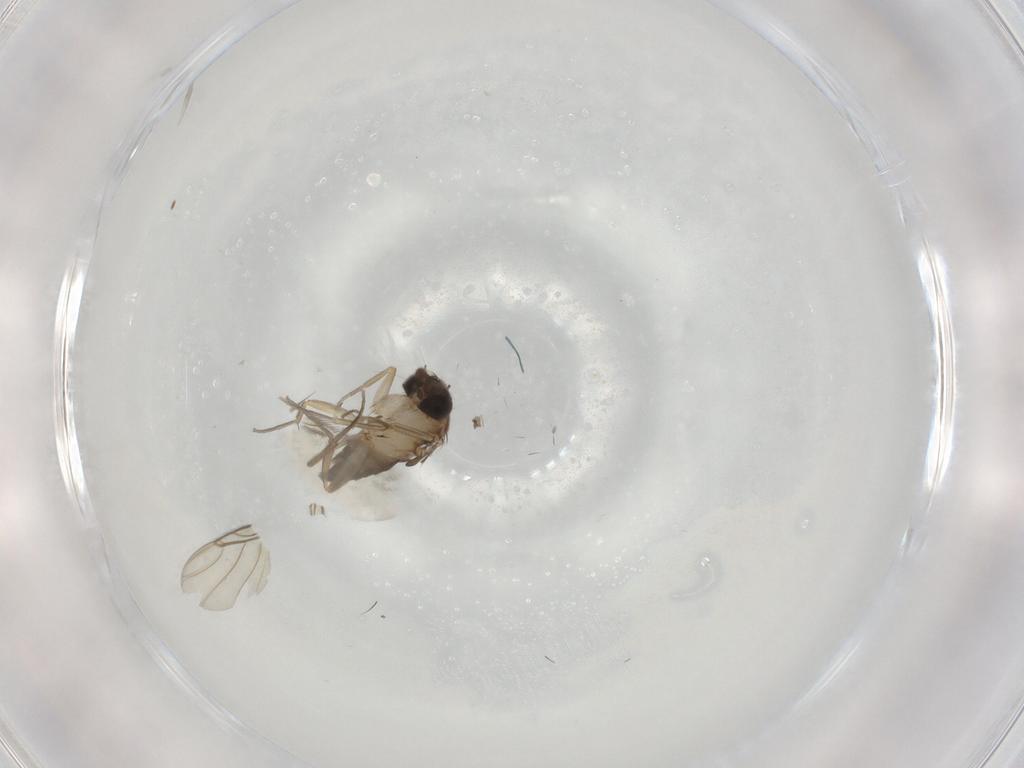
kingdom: Animalia
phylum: Arthropoda
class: Insecta
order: Diptera
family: Phoridae
